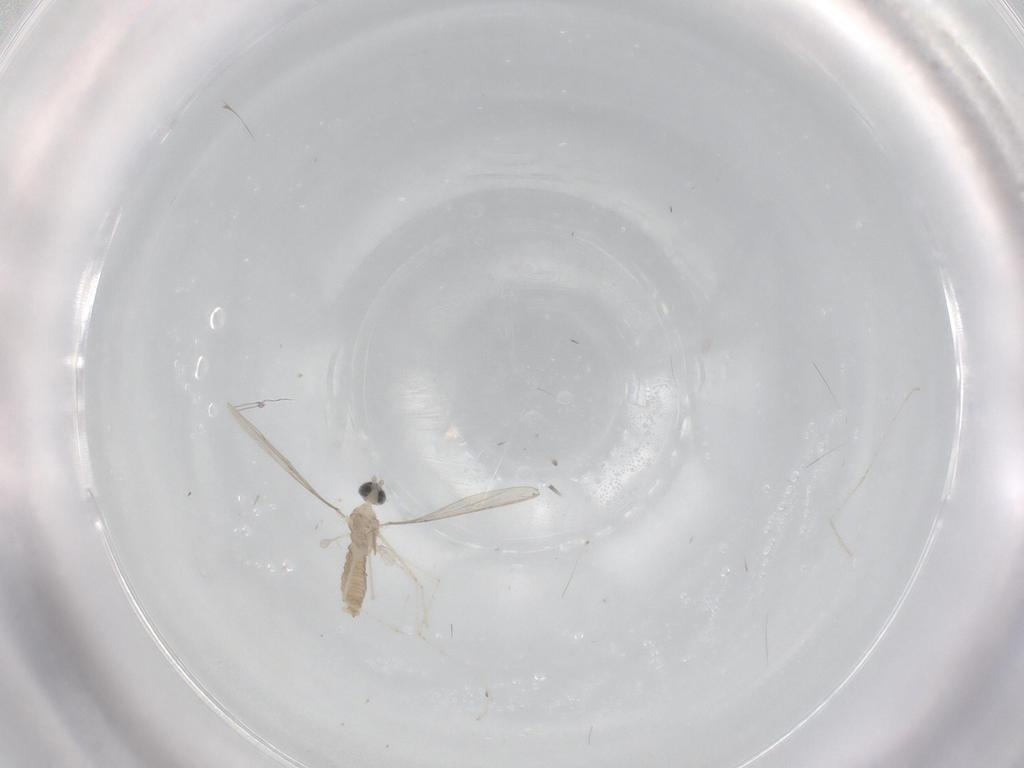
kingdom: Animalia
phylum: Arthropoda
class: Insecta
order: Diptera
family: Cecidomyiidae
